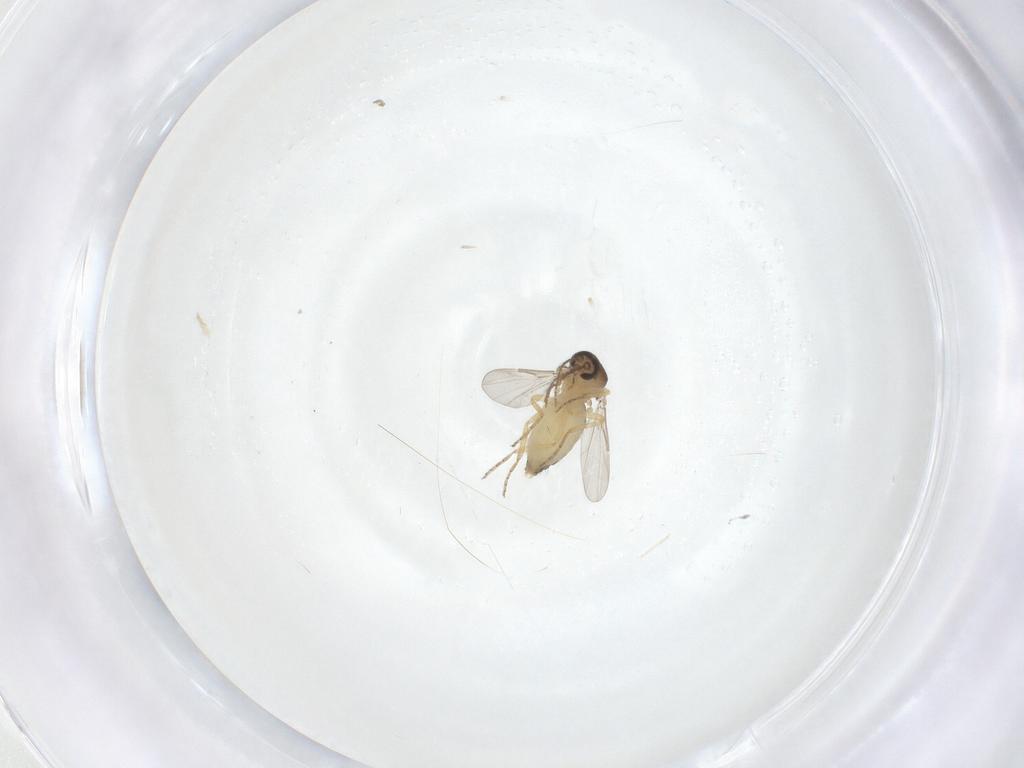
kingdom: Animalia
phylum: Arthropoda
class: Insecta
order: Diptera
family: Ceratopogonidae
